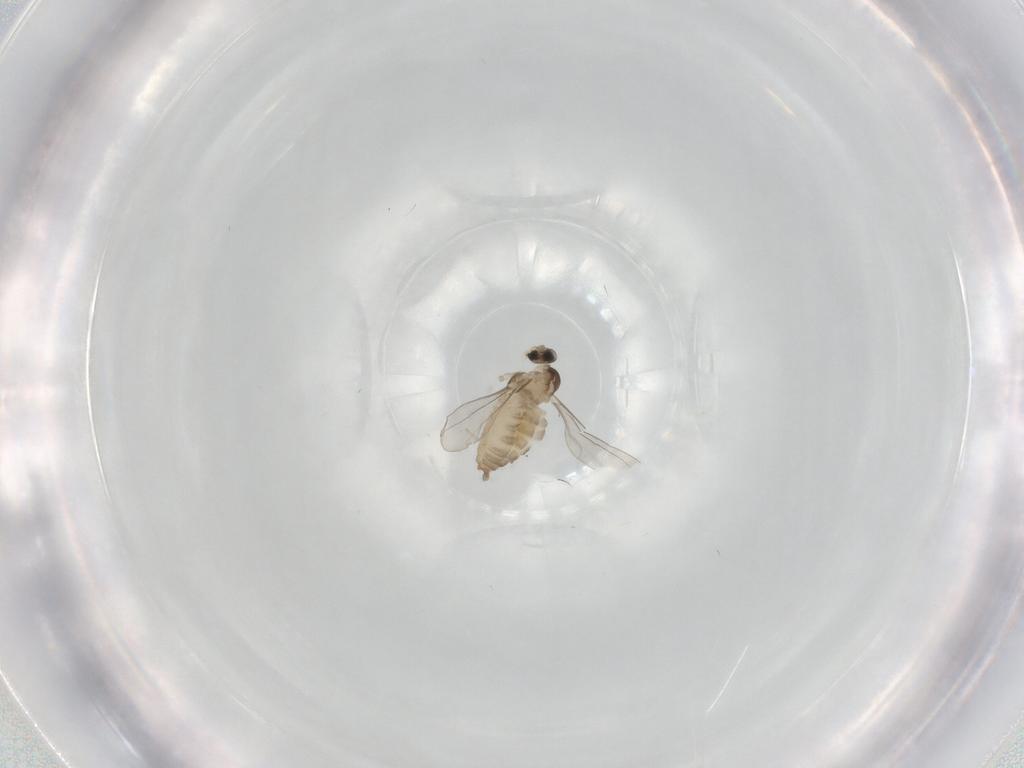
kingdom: Animalia
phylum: Arthropoda
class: Insecta
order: Diptera
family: Cecidomyiidae
